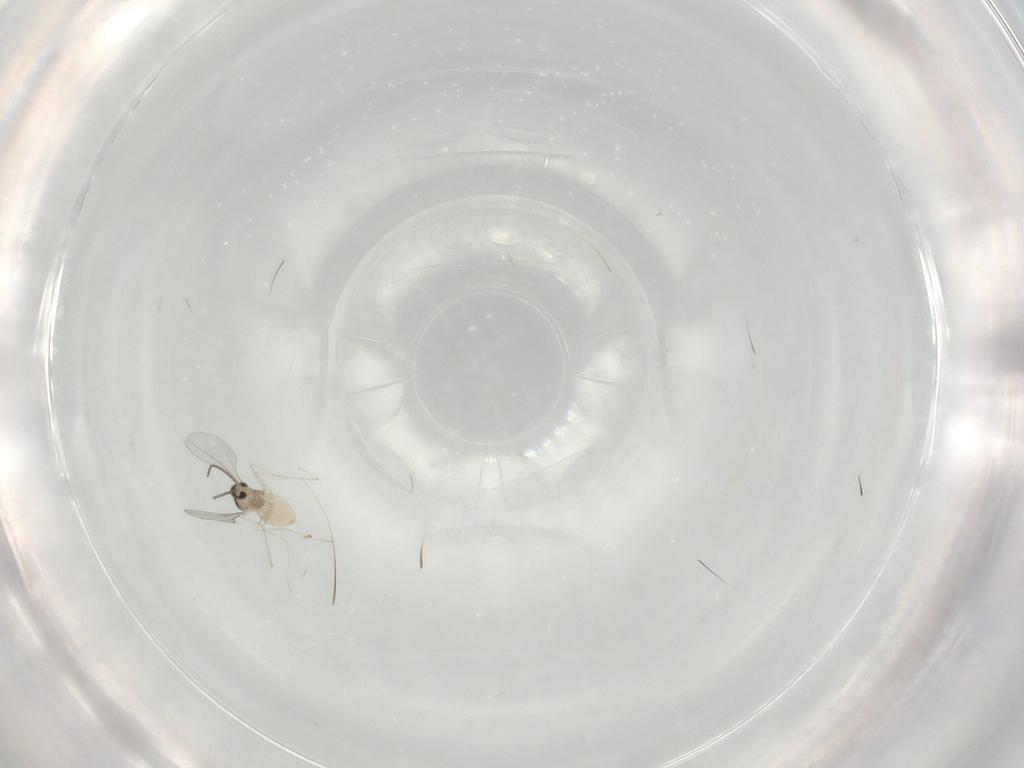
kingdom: Animalia
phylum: Arthropoda
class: Insecta
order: Diptera
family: Cecidomyiidae
